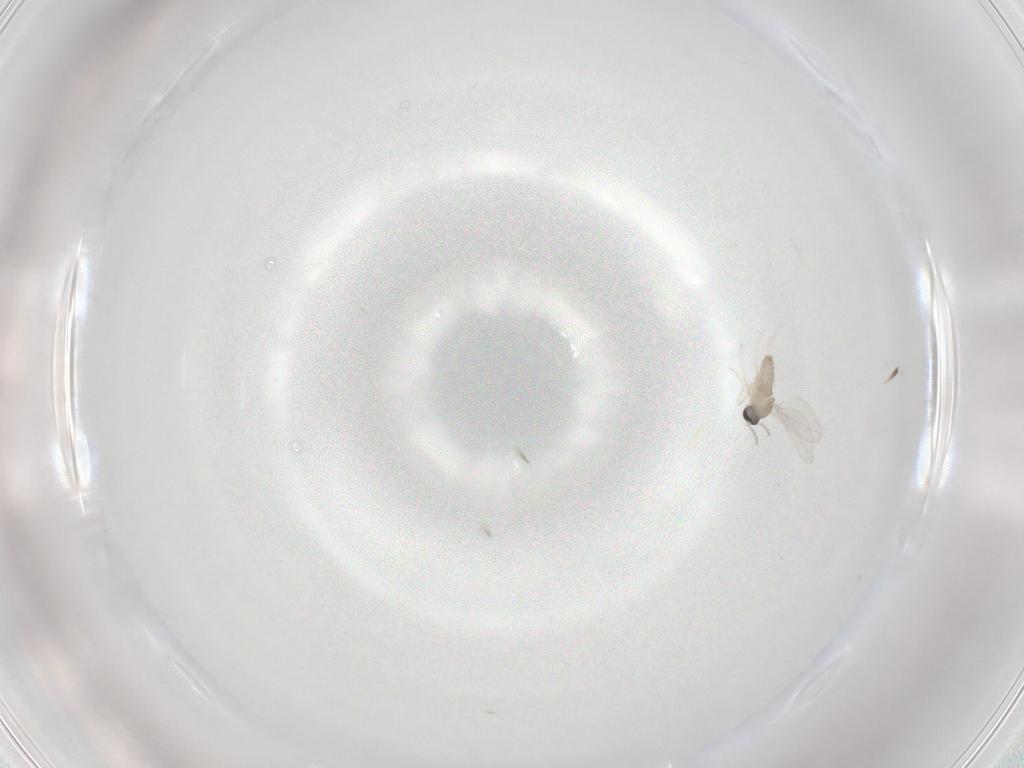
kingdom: Animalia
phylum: Arthropoda
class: Insecta
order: Diptera
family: Cecidomyiidae
